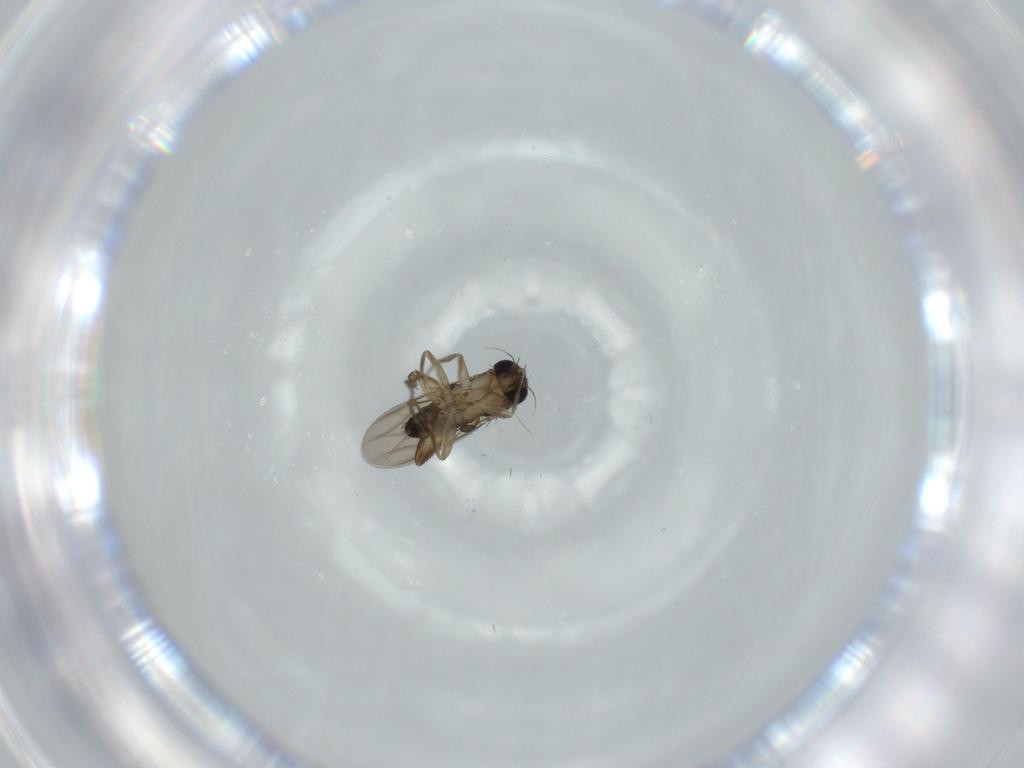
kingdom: Animalia
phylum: Arthropoda
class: Insecta
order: Diptera
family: Phoridae
